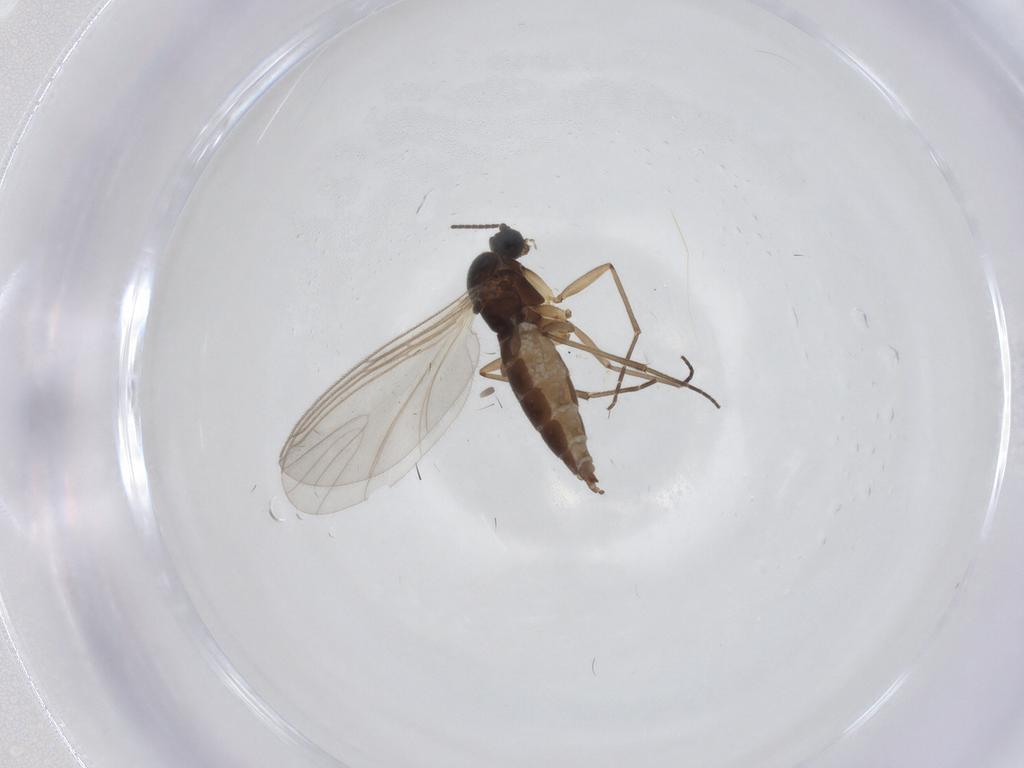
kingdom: Animalia
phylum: Arthropoda
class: Insecta
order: Diptera
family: Sciaridae
